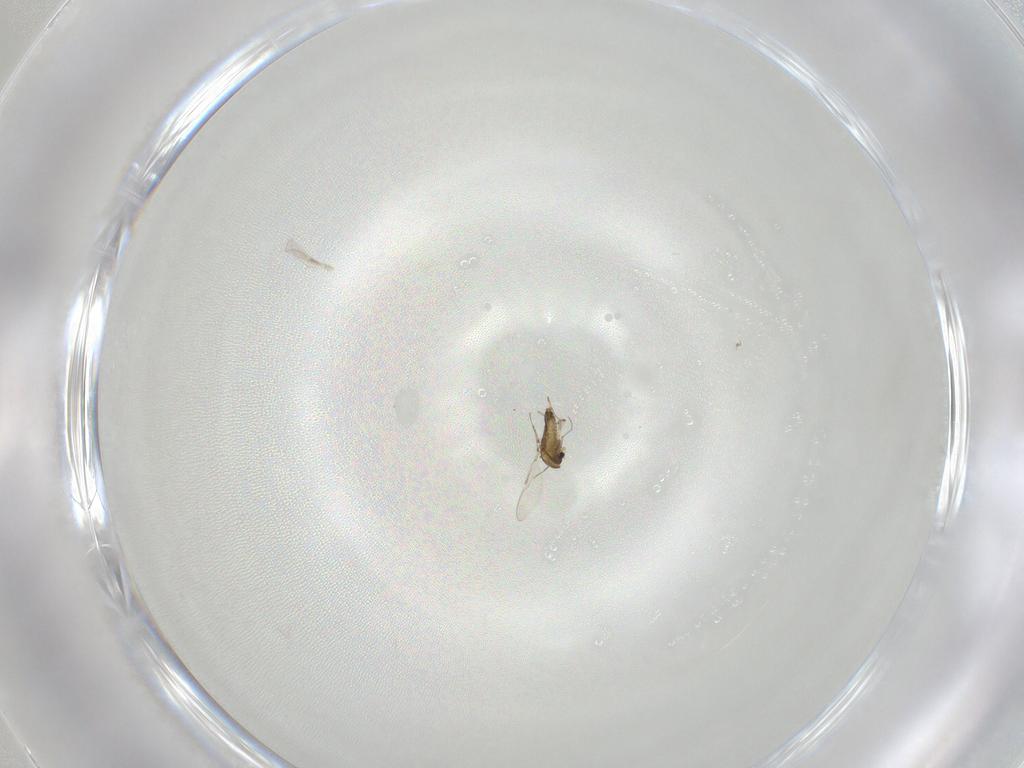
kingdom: Animalia
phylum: Arthropoda
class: Insecta
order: Diptera
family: Chironomidae
